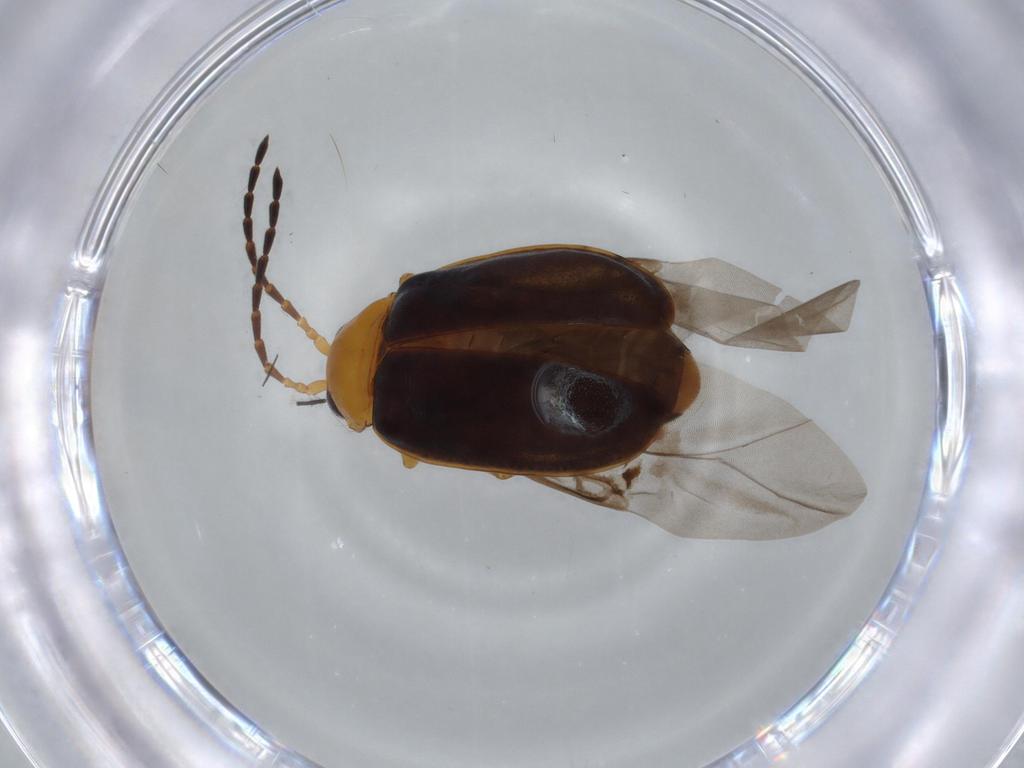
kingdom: Animalia
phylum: Arthropoda
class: Insecta
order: Coleoptera
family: Chrysomelidae
